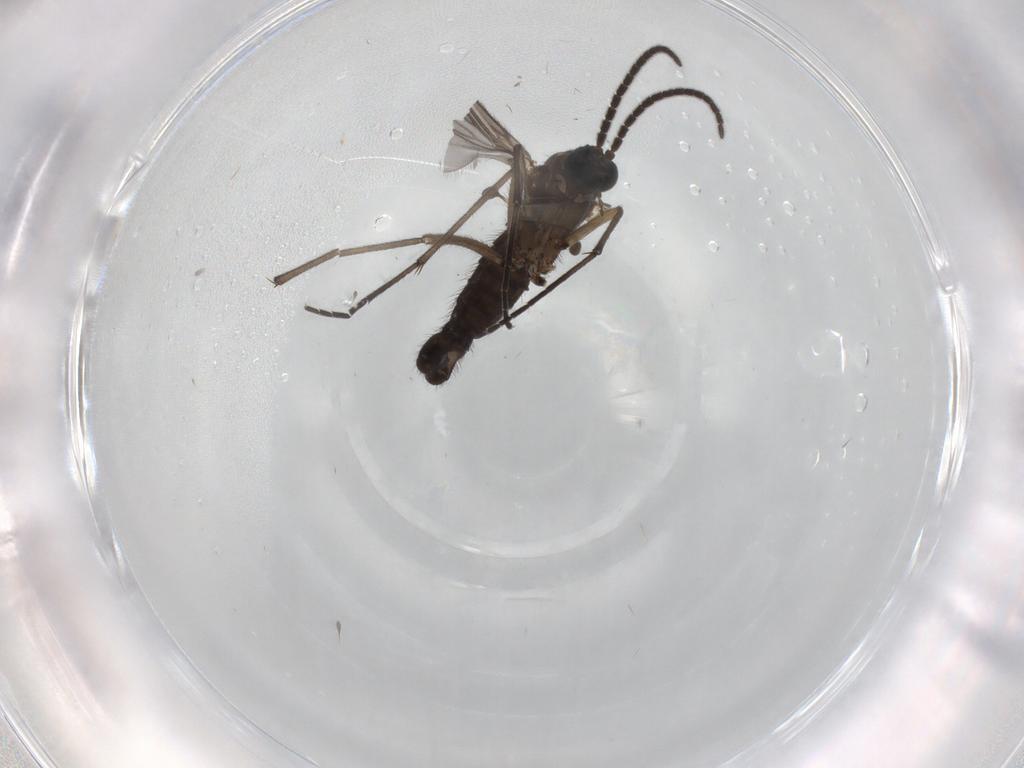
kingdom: Animalia
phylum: Arthropoda
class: Insecta
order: Diptera
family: Sciaridae
